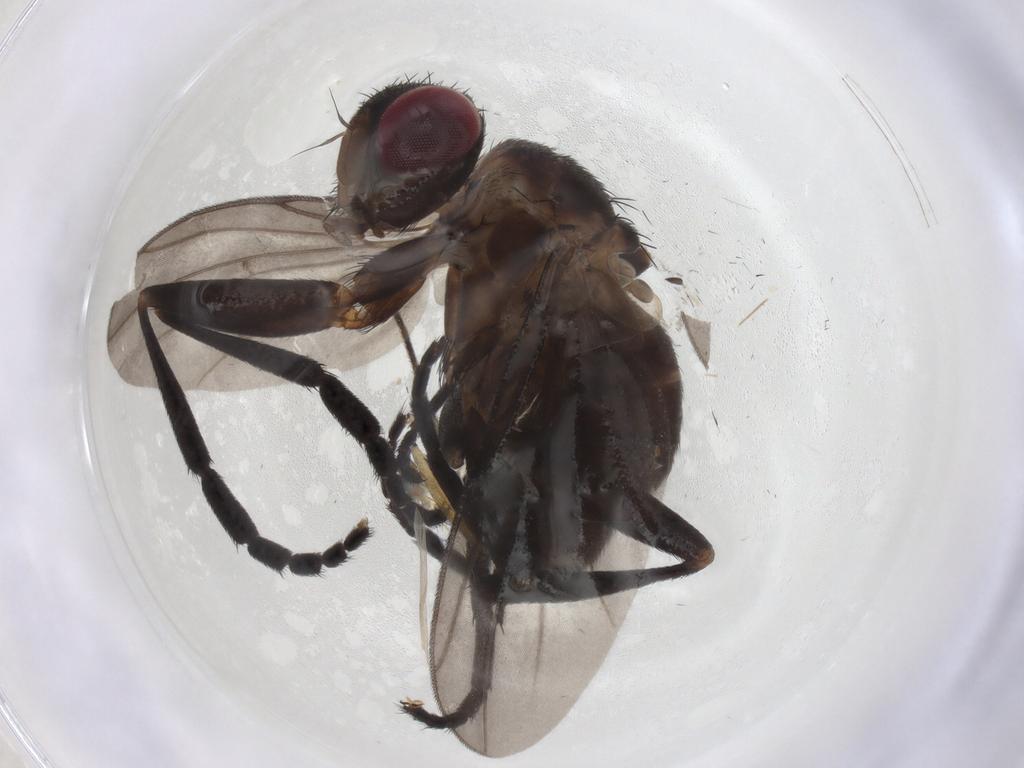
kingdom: Animalia
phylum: Arthropoda
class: Insecta
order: Diptera
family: Calliphoridae
